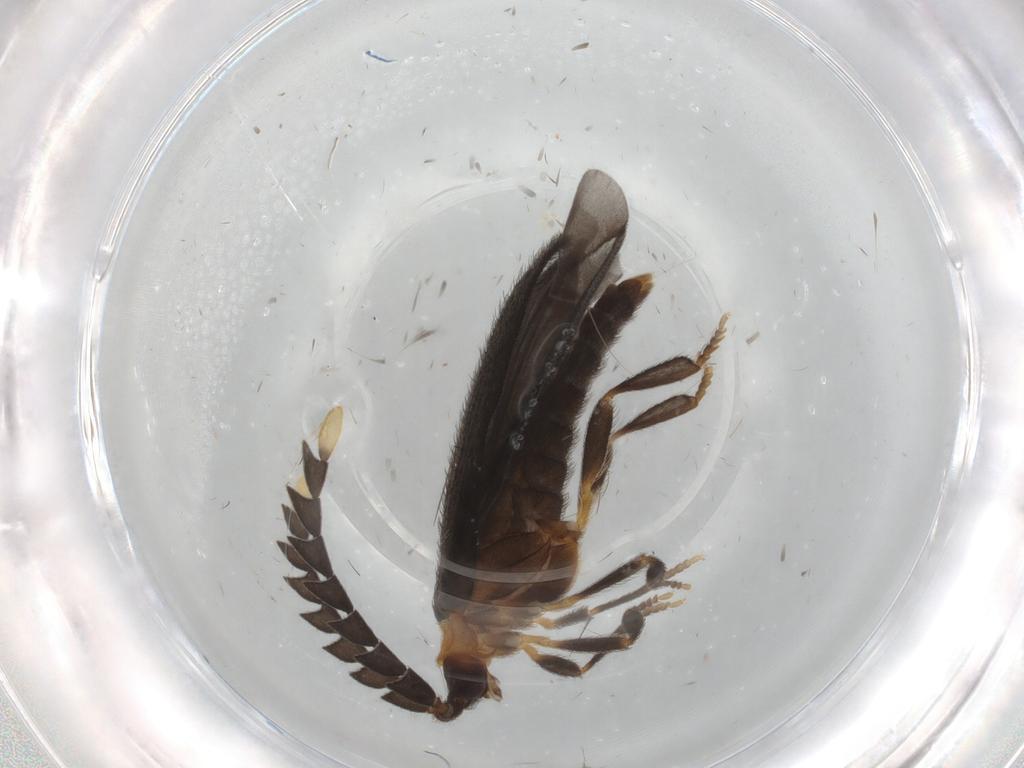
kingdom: Animalia
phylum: Arthropoda
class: Insecta
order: Coleoptera
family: Lycidae
